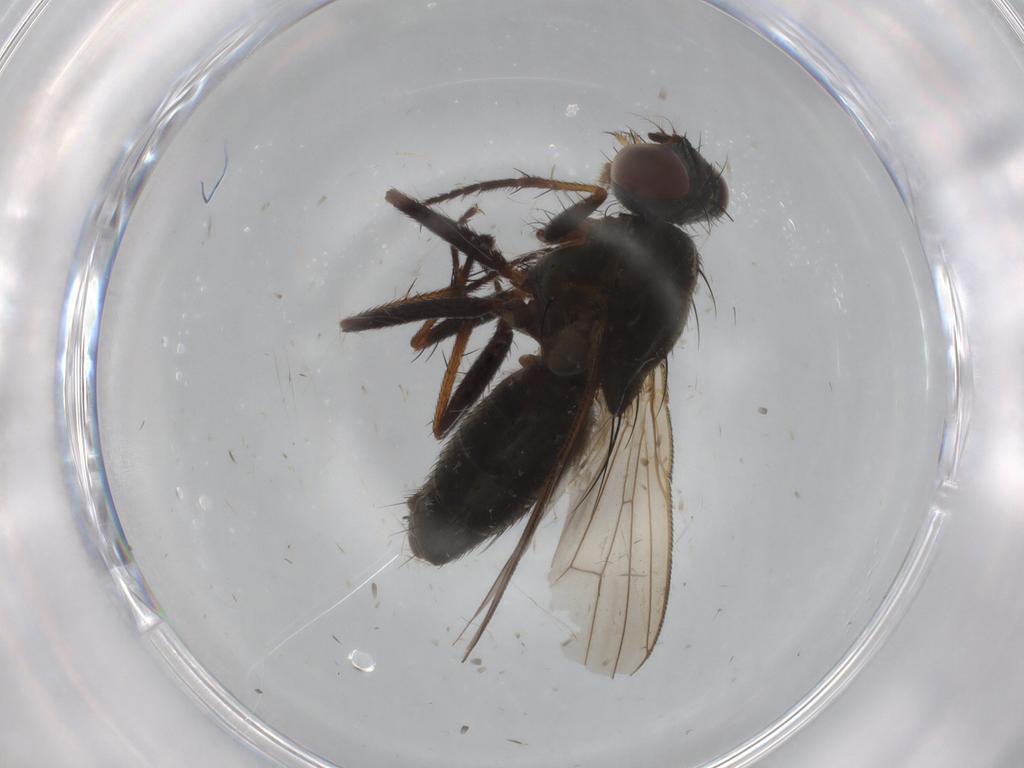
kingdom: Animalia
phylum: Arthropoda
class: Insecta
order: Diptera
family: Muscidae
